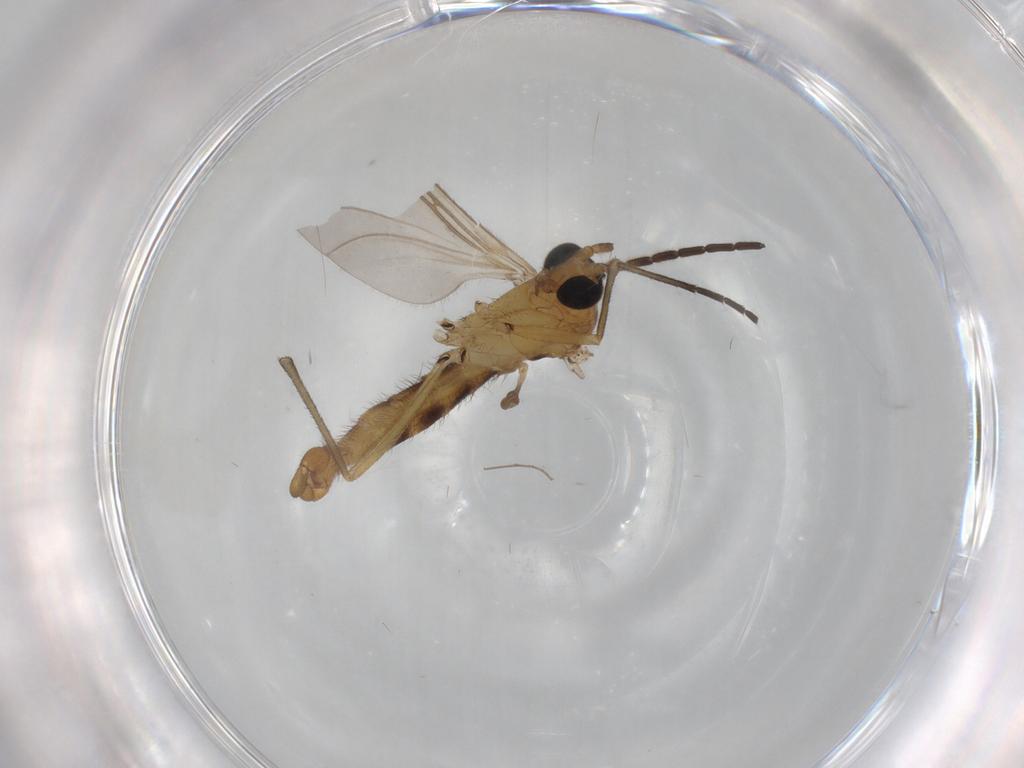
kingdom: Animalia
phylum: Arthropoda
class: Insecta
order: Diptera
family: Sciaridae
